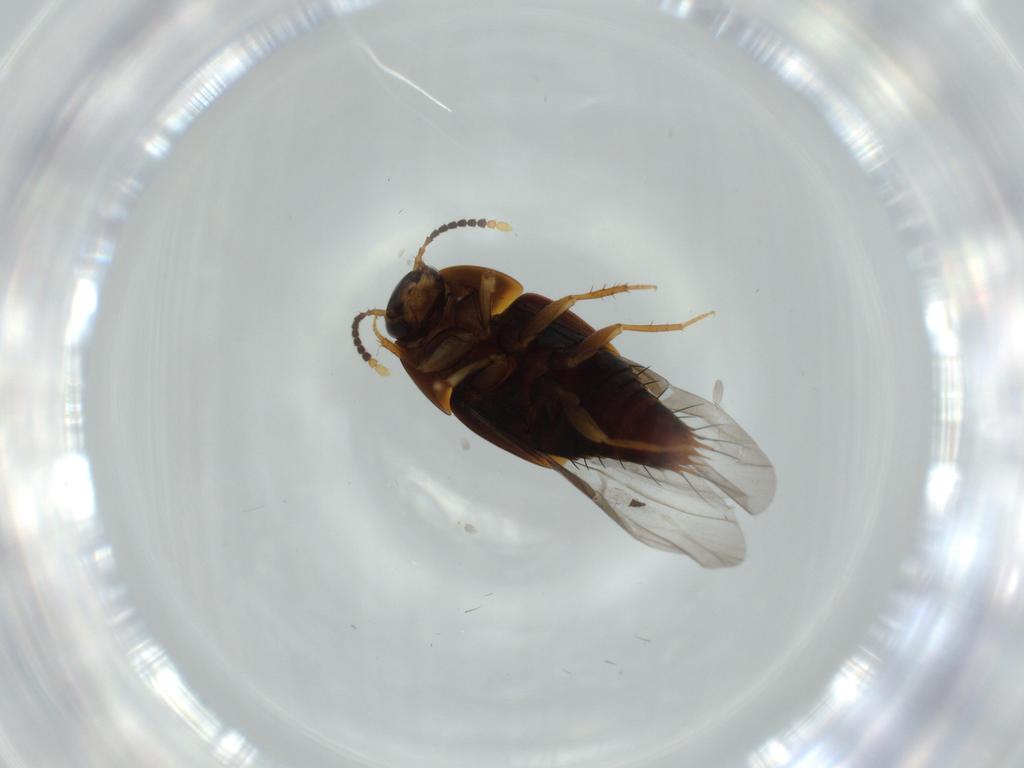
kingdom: Animalia
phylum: Arthropoda
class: Insecta
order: Coleoptera
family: Staphylinidae
